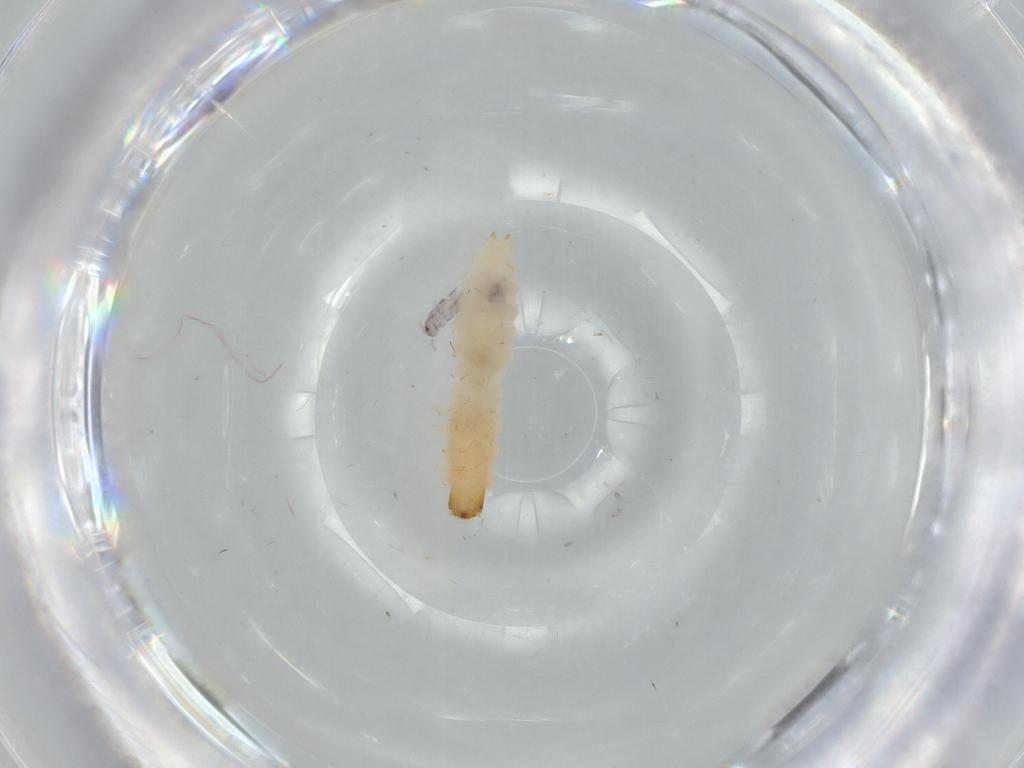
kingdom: Animalia
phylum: Arthropoda
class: Insecta
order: Coleoptera
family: Melyridae
